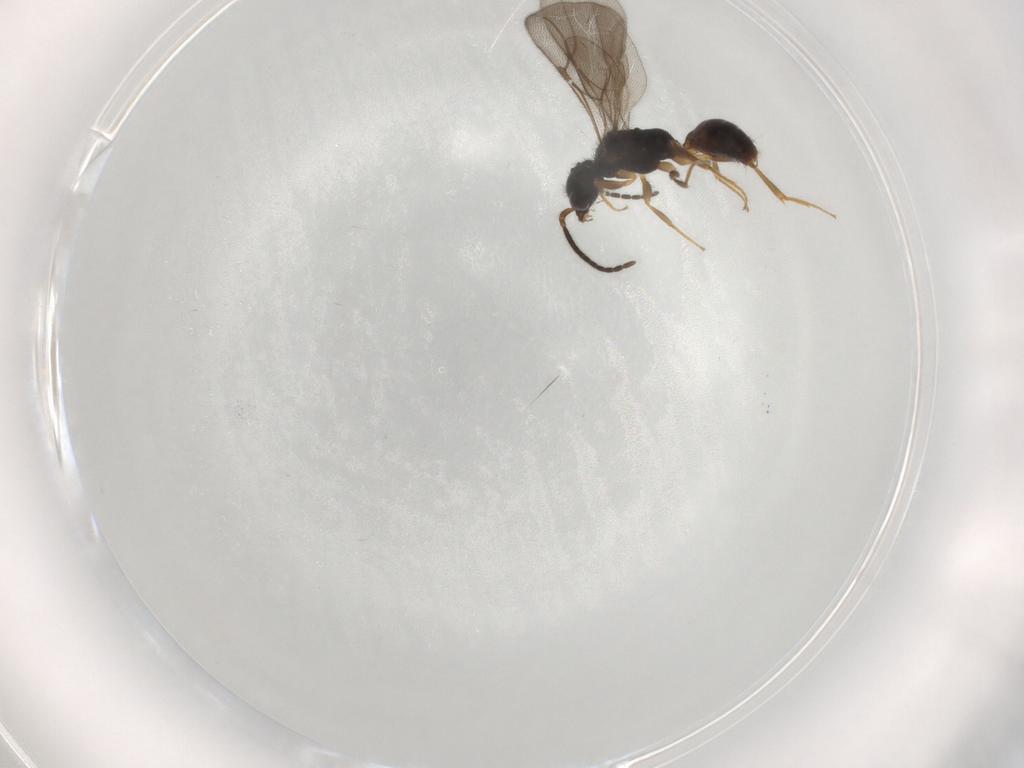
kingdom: Animalia
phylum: Arthropoda
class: Insecta
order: Hymenoptera
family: Bethylidae
